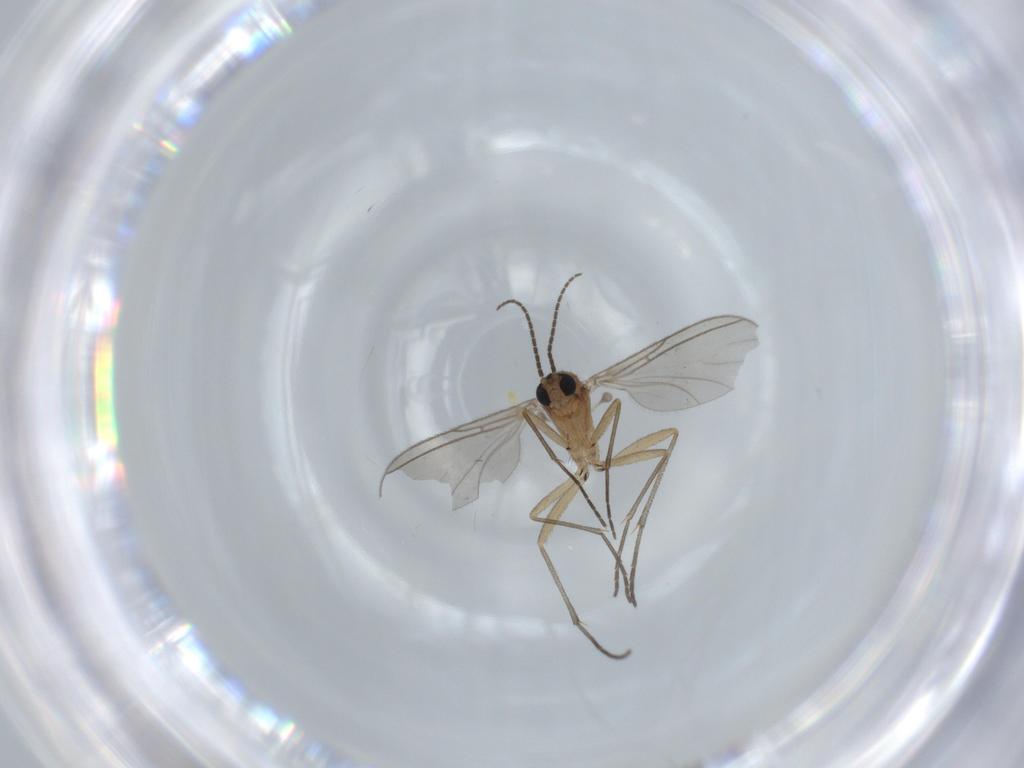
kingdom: Animalia
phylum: Arthropoda
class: Insecta
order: Diptera
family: Sciaridae
